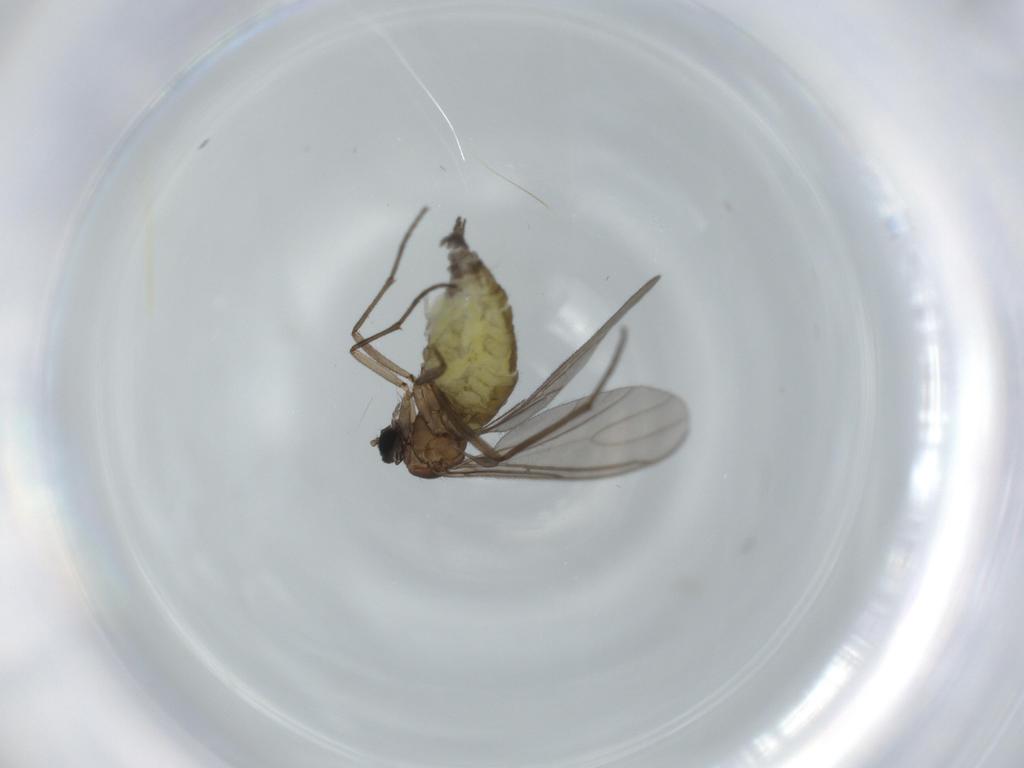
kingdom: Animalia
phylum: Arthropoda
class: Insecta
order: Diptera
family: Sciaridae
